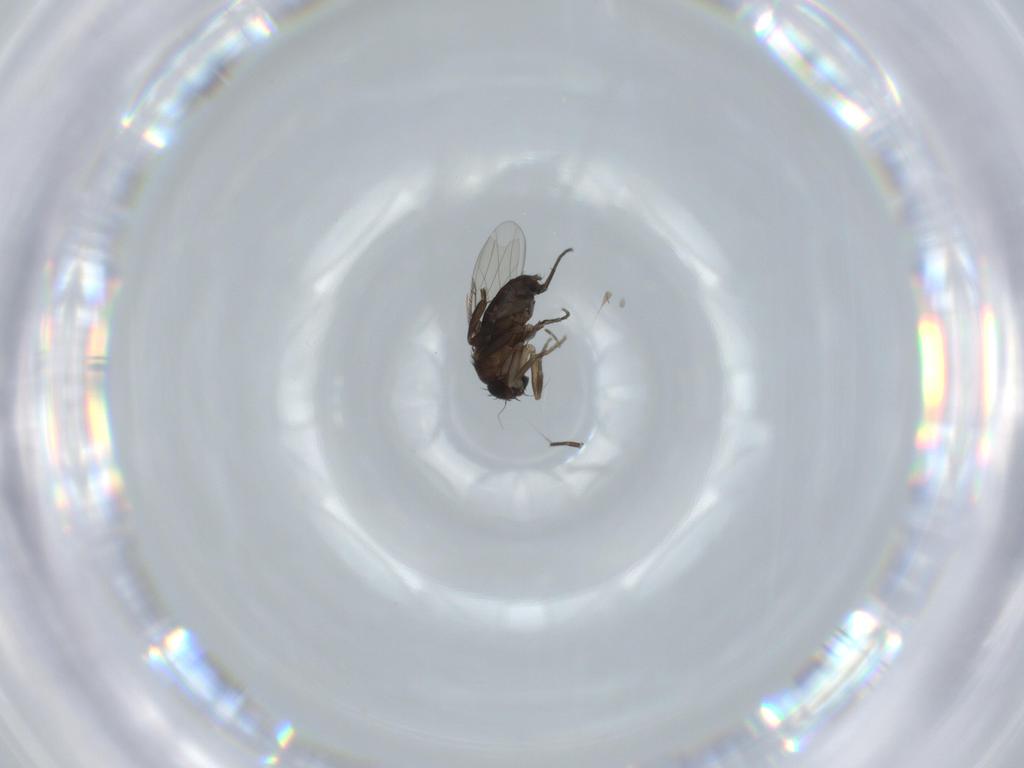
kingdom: Animalia
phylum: Arthropoda
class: Insecta
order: Diptera
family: Phoridae
